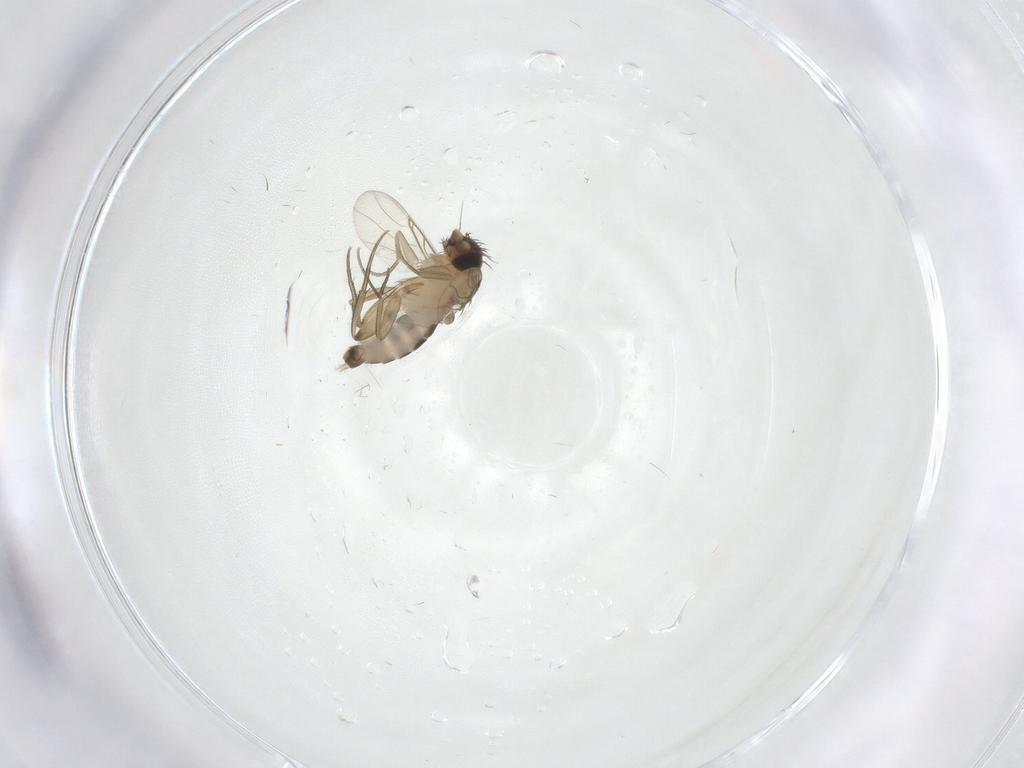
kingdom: Animalia
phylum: Arthropoda
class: Insecta
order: Diptera
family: Phoridae
